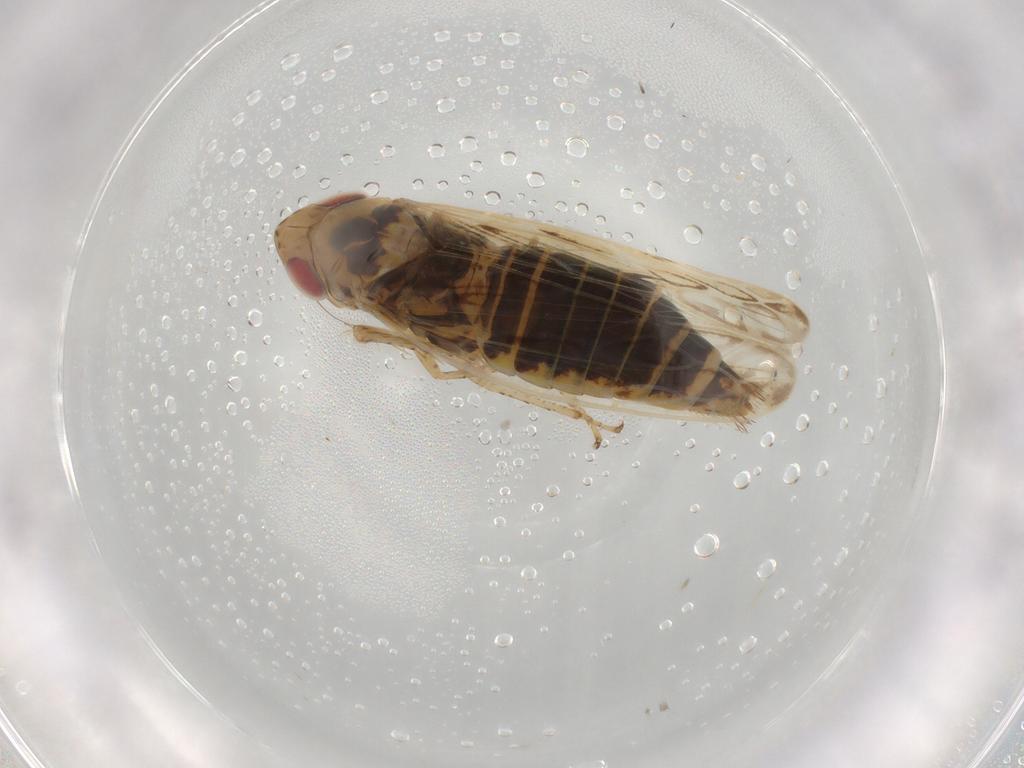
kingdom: Animalia
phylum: Arthropoda
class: Insecta
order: Hemiptera
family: Cicadellidae
